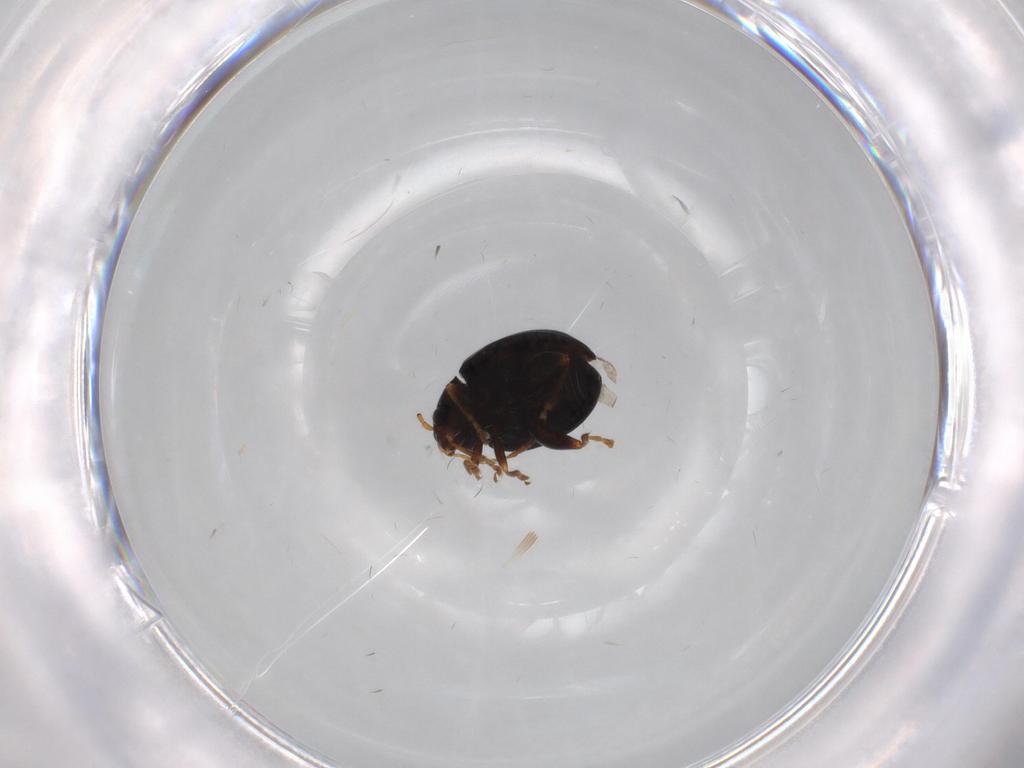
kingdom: Animalia
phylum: Arthropoda
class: Insecta
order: Coleoptera
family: Chrysomelidae
